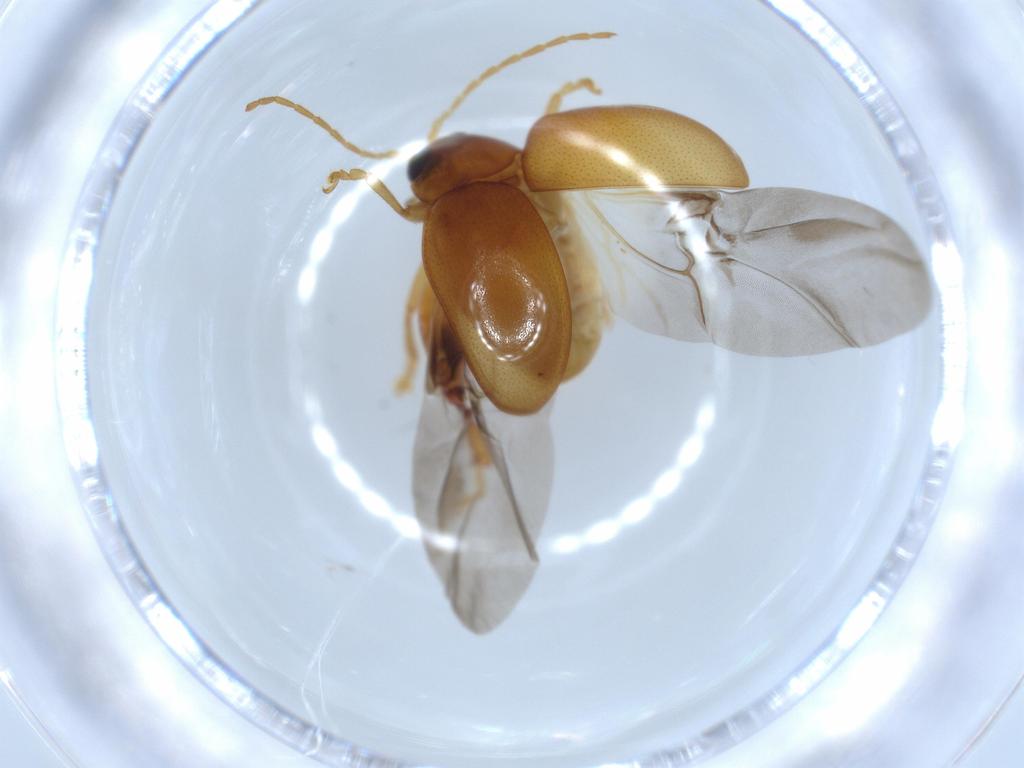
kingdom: Animalia
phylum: Arthropoda
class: Insecta
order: Coleoptera
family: Chrysomelidae
